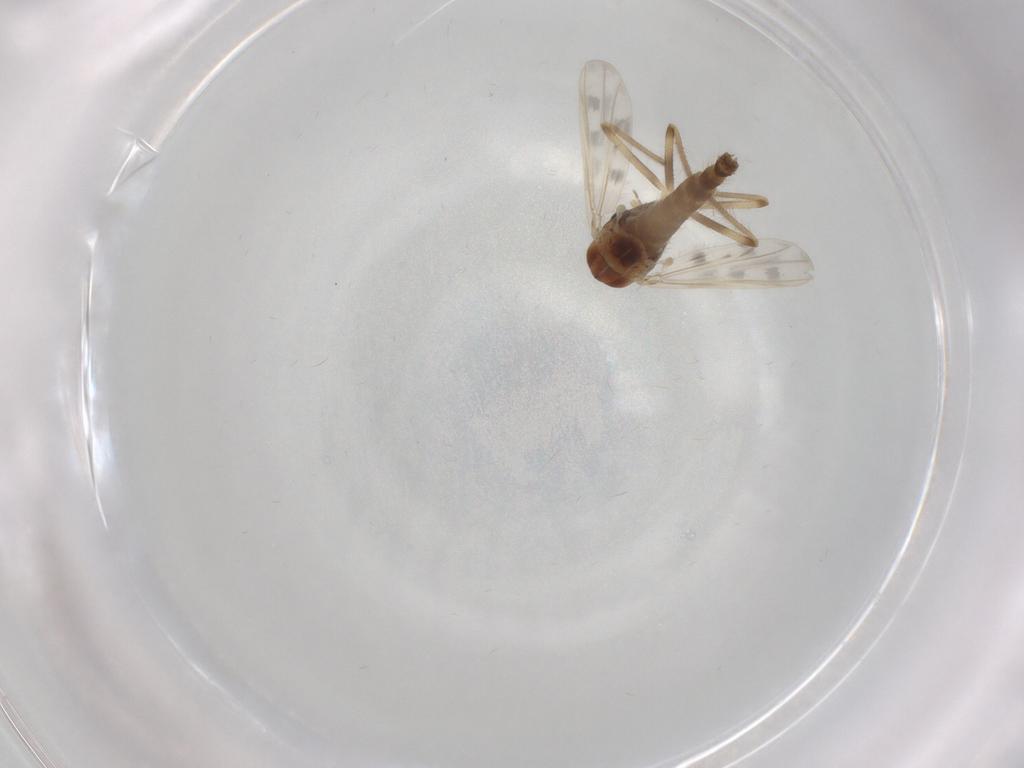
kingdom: Animalia
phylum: Arthropoda
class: Insecta
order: Diptera
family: Chironomidae
